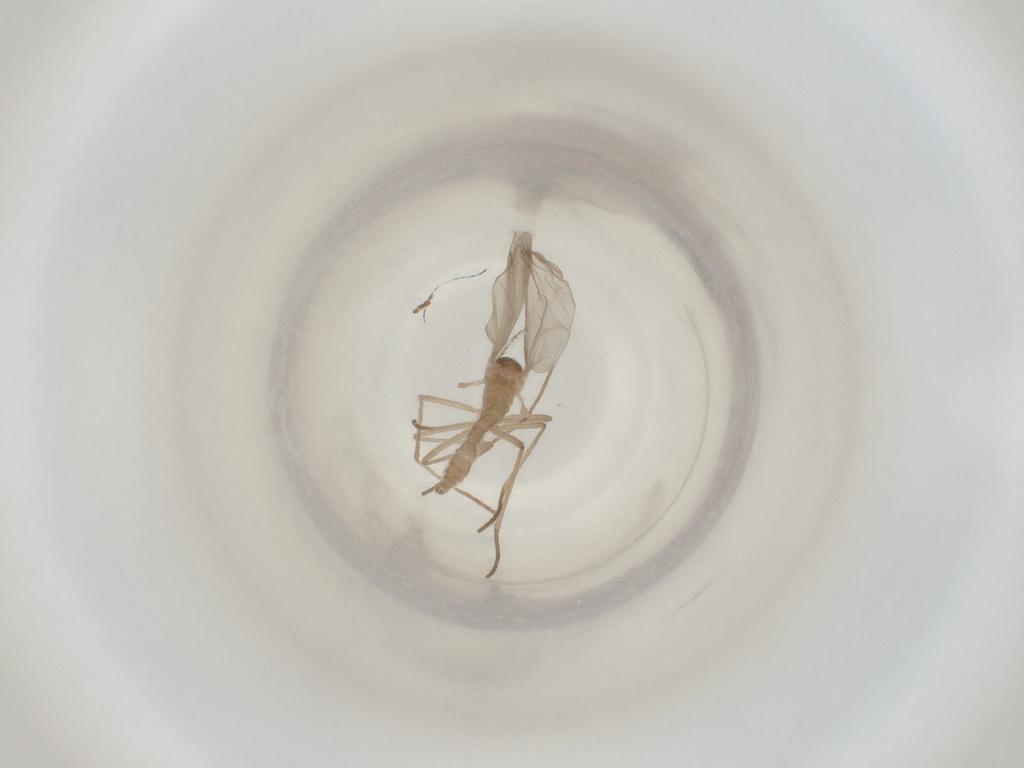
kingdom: Animalia
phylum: Arthropoda
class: Insecta
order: Diptera
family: Cecidomyiidae
